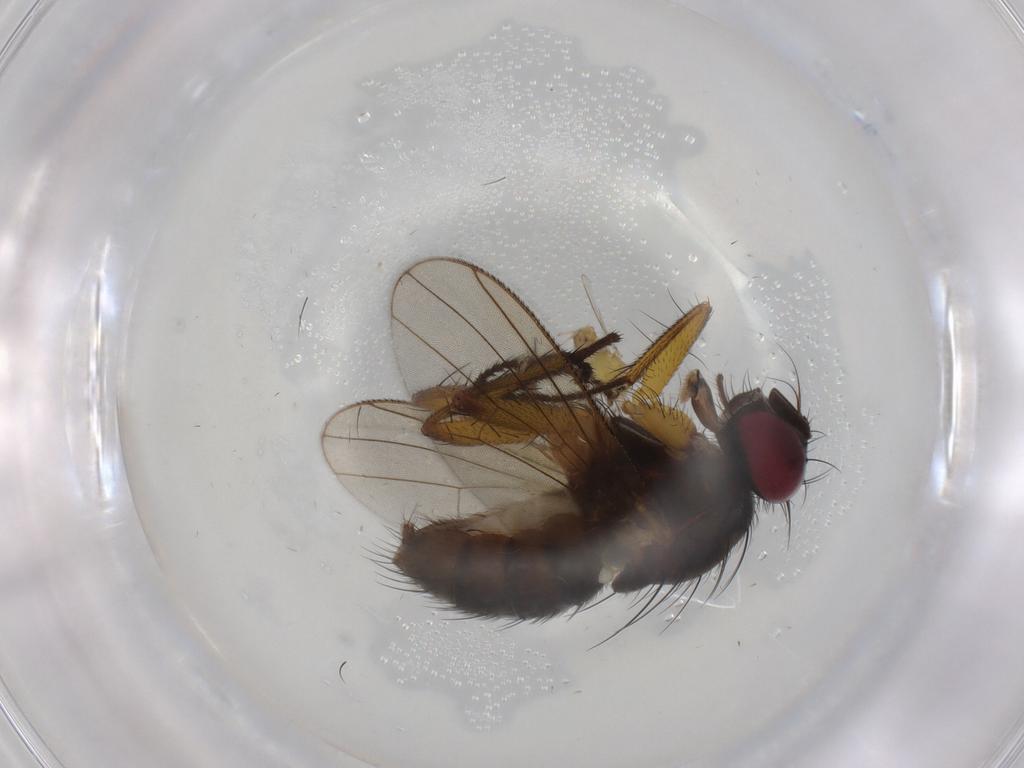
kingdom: Animalia
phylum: Arthropoda
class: Insecta
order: Diptera
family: Muscidae
